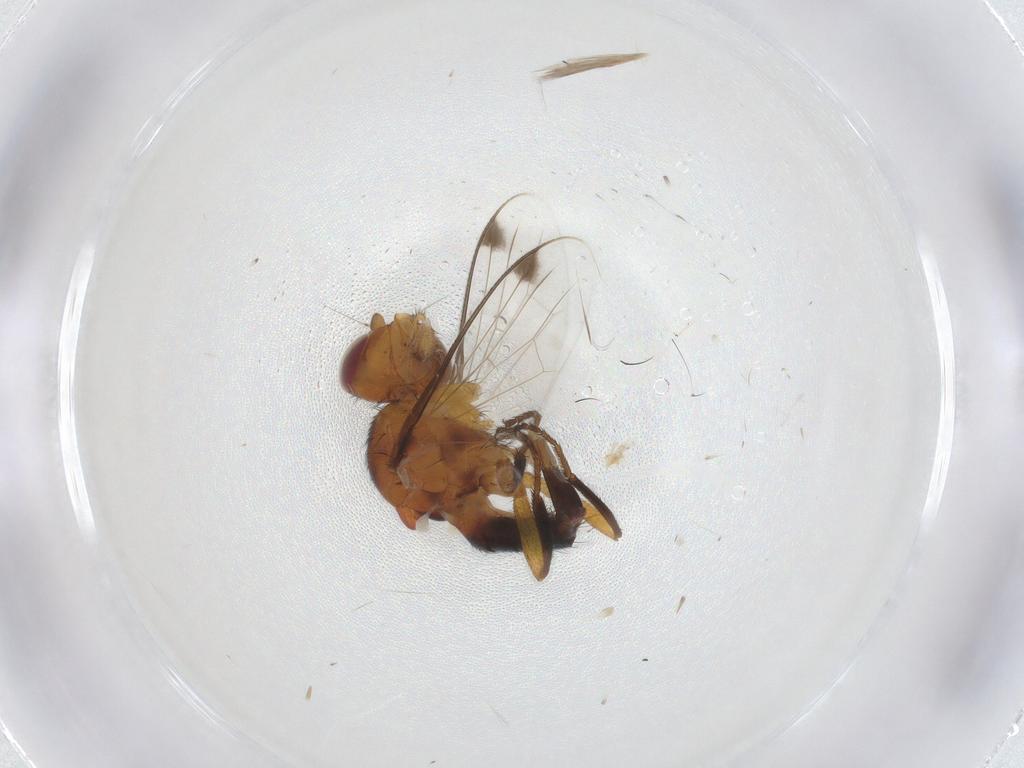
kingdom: Animalia
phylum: Arthropoda
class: Insecta
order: Diptera
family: Richardiidae
